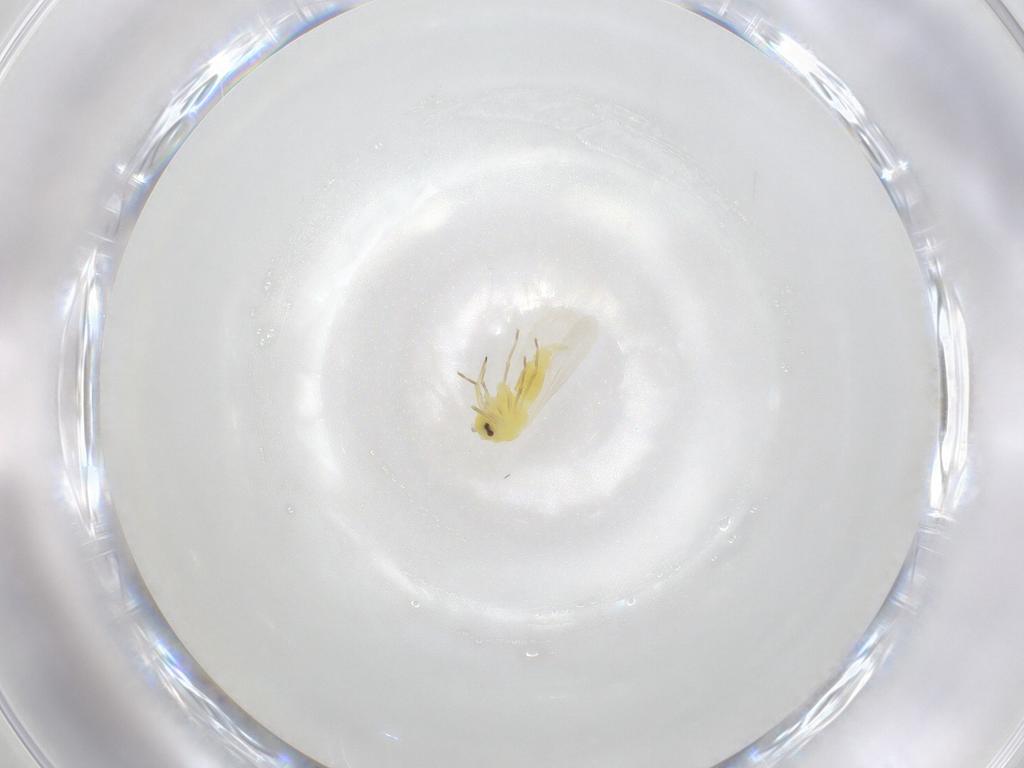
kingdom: Animalia
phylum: Arthropoda
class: Insecta
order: Hemiptera
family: Aleyrodidae
